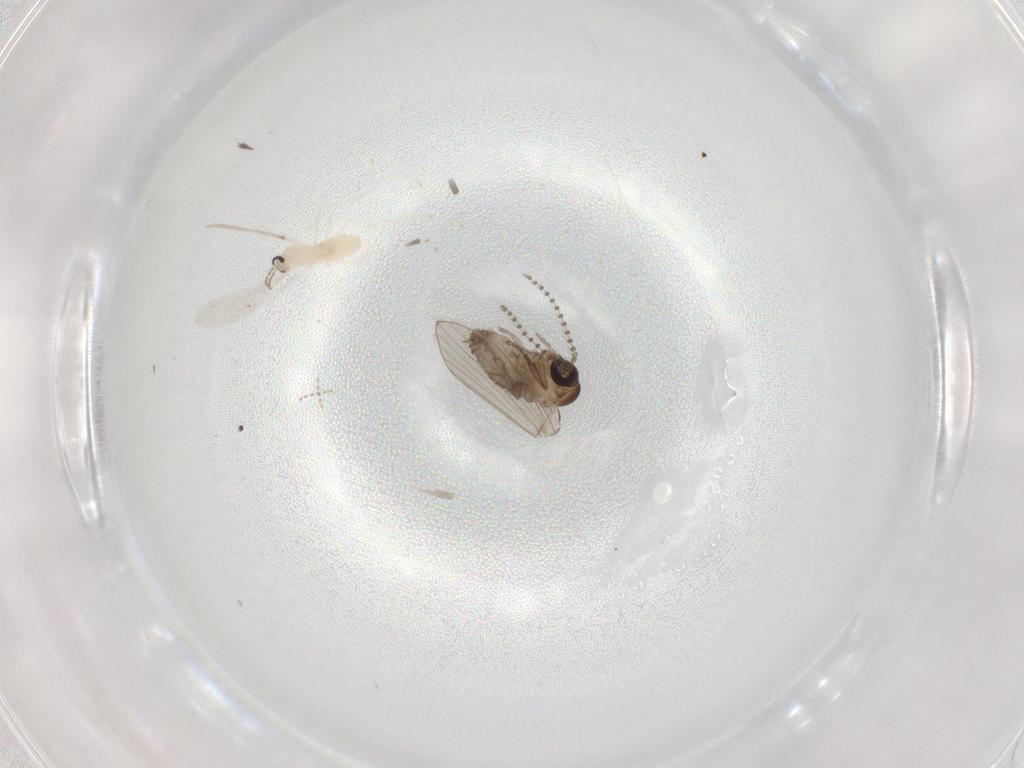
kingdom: Animalia
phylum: Arthropoda
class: Insecta
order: Diptera
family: Psychodidae
